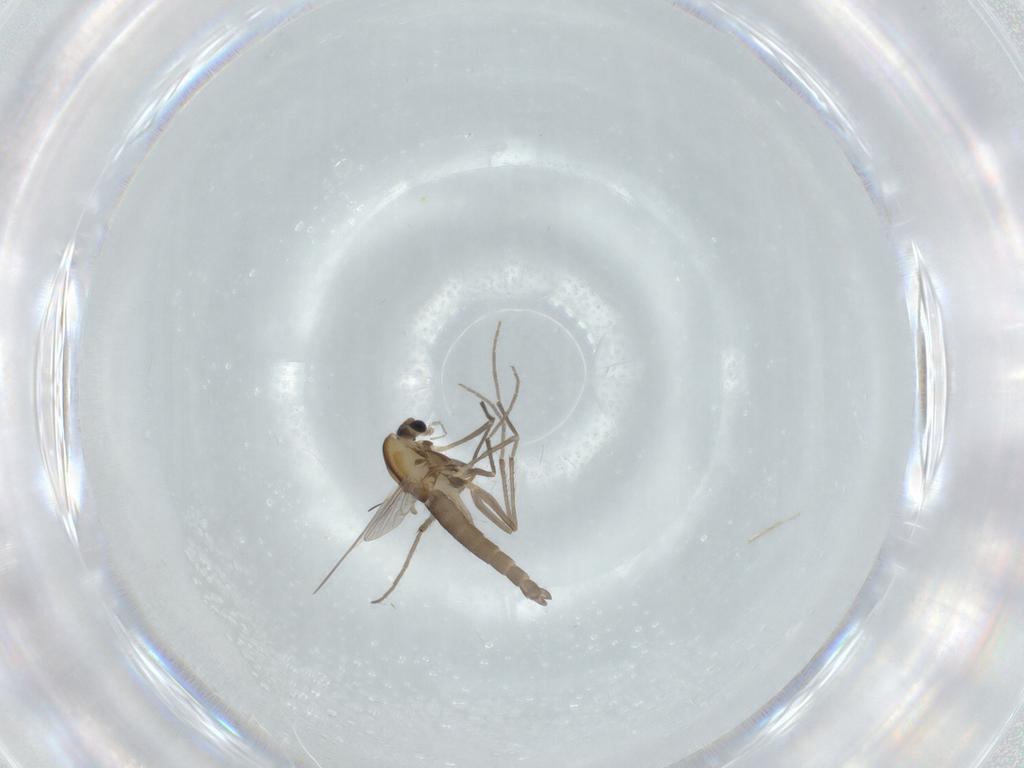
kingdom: Animalia
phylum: Arthropoda
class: Insecta
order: Diptera
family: Chironomidae
